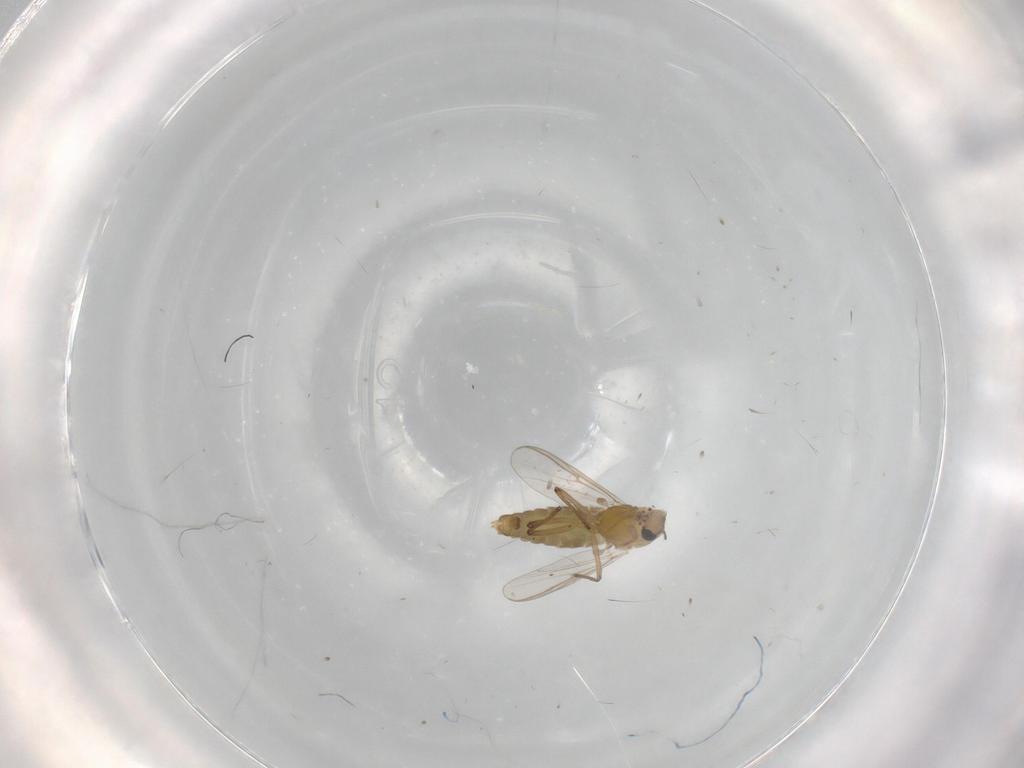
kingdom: Animalia
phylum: Arthropoda
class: Insecta
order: Diptera
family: Chironomidae
